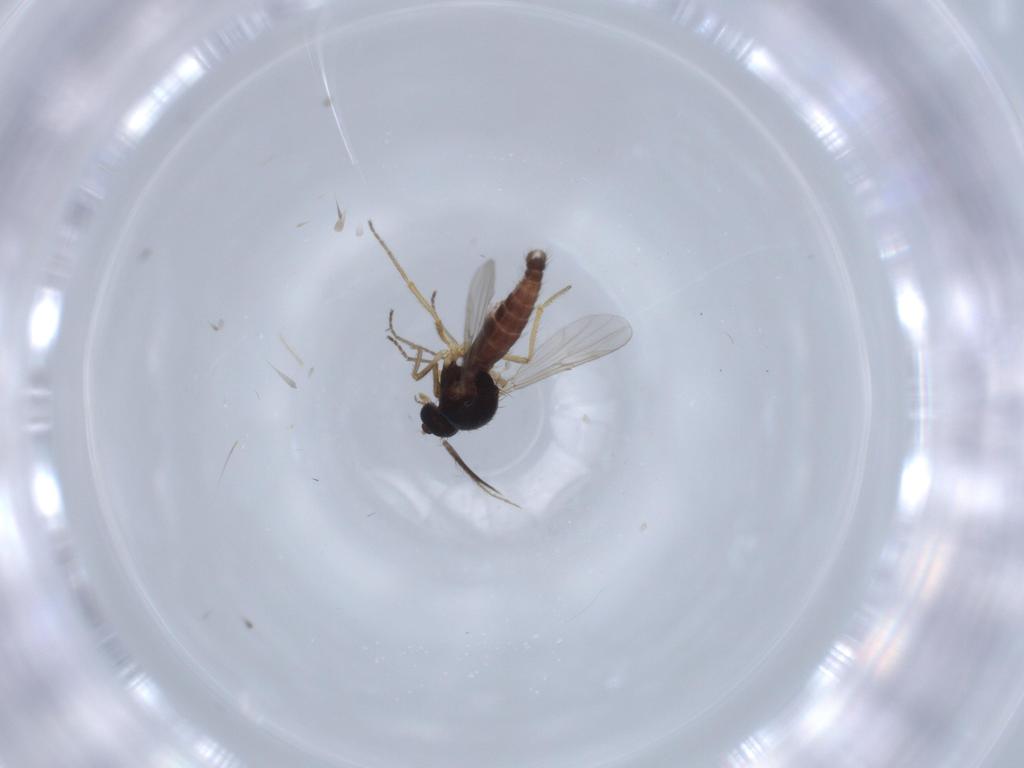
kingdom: Animalia
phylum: Arthropoda
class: Insecta
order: Diptera
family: Ceratopogonidae
